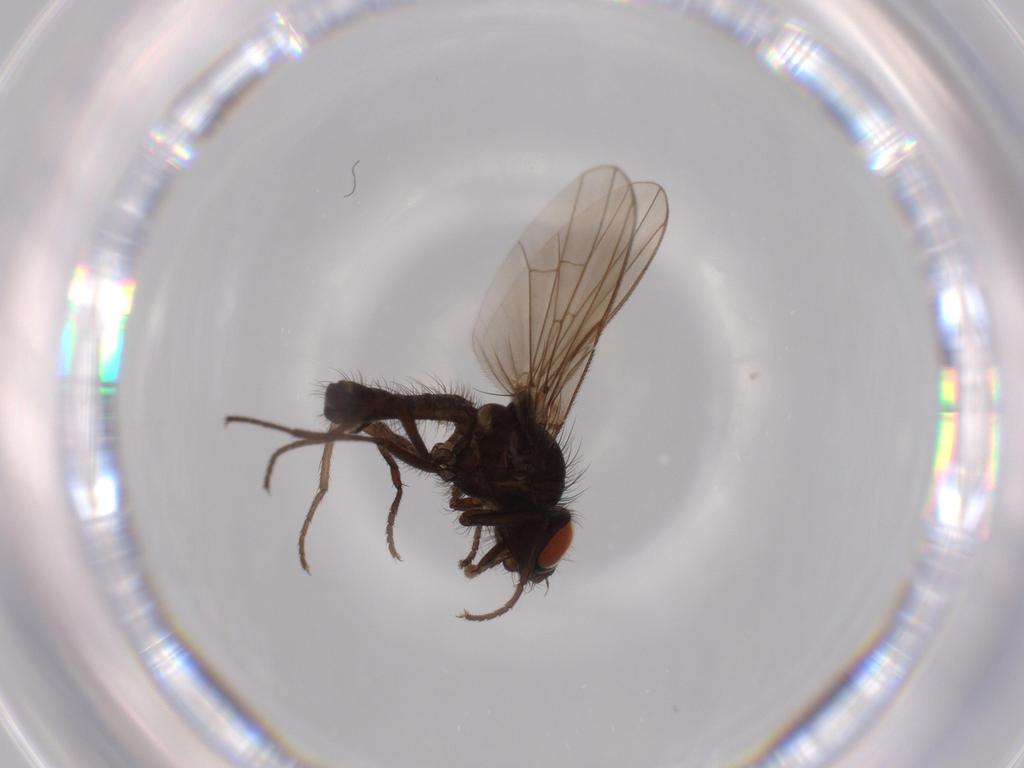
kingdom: Animalia
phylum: Arthropoda
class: Insecta
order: Diptera
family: Anthomyiidae
